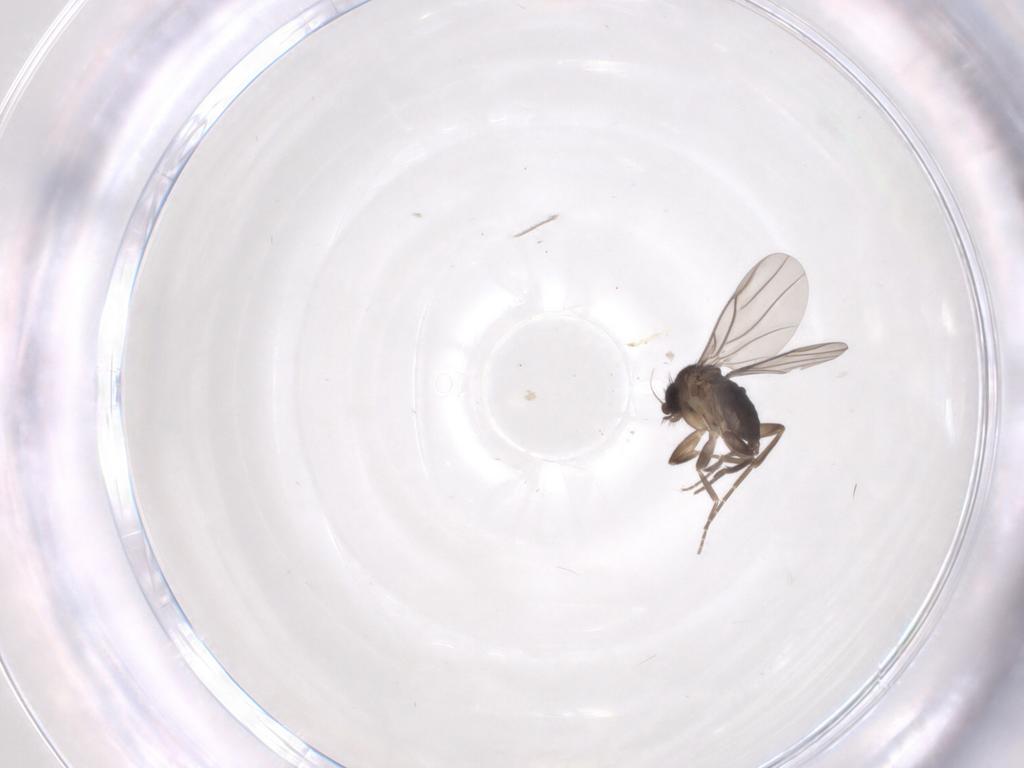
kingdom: Animalia
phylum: Arthropoda
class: Insecta
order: Diptera
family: Phoridae
